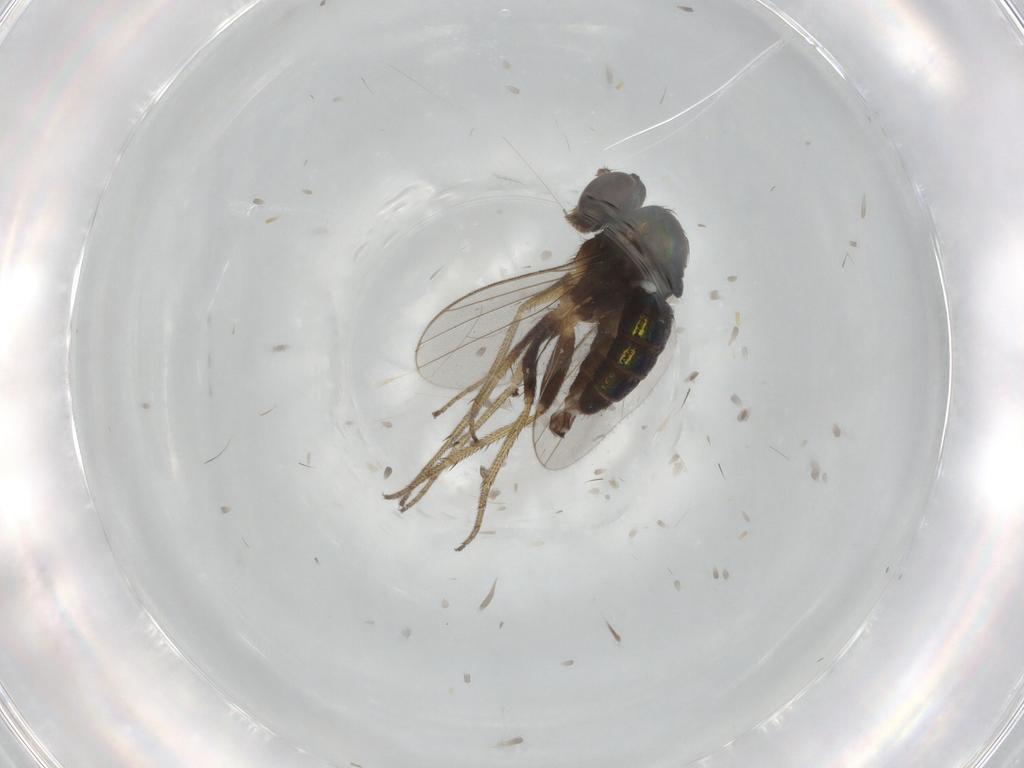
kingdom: Animalia
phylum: Arthropoda
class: Insecta
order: Diptera
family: Dolichopodidae
